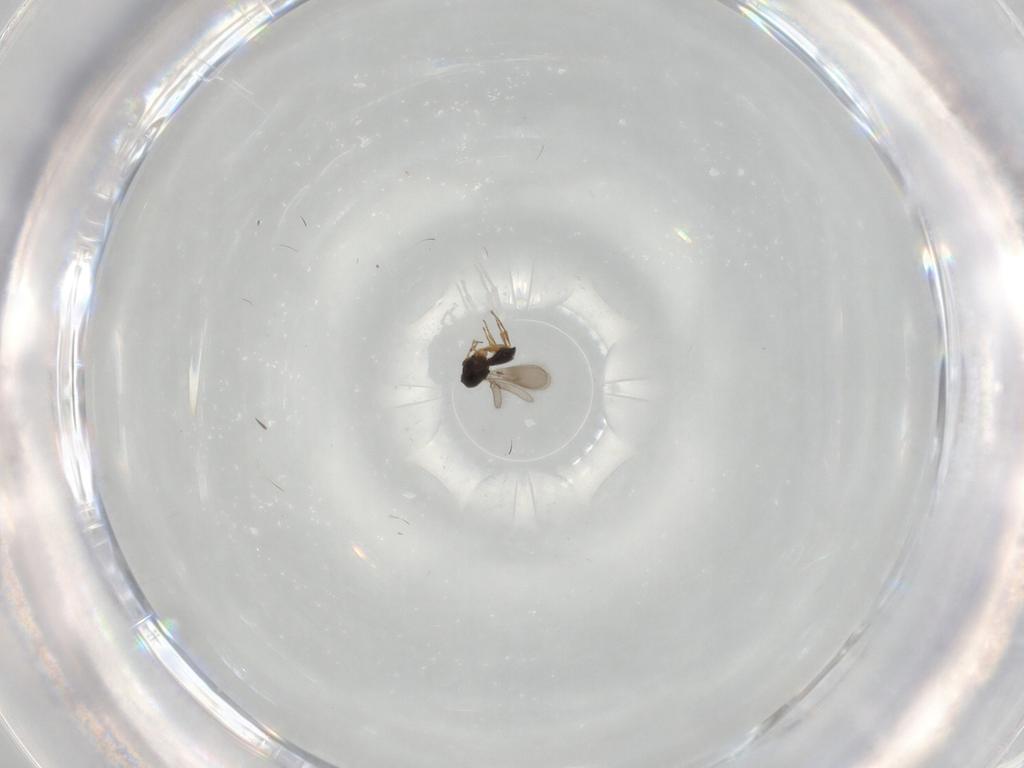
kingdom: Animalia
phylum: Arthropoda
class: Insecta
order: Hymenoptera
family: Scelionidae
